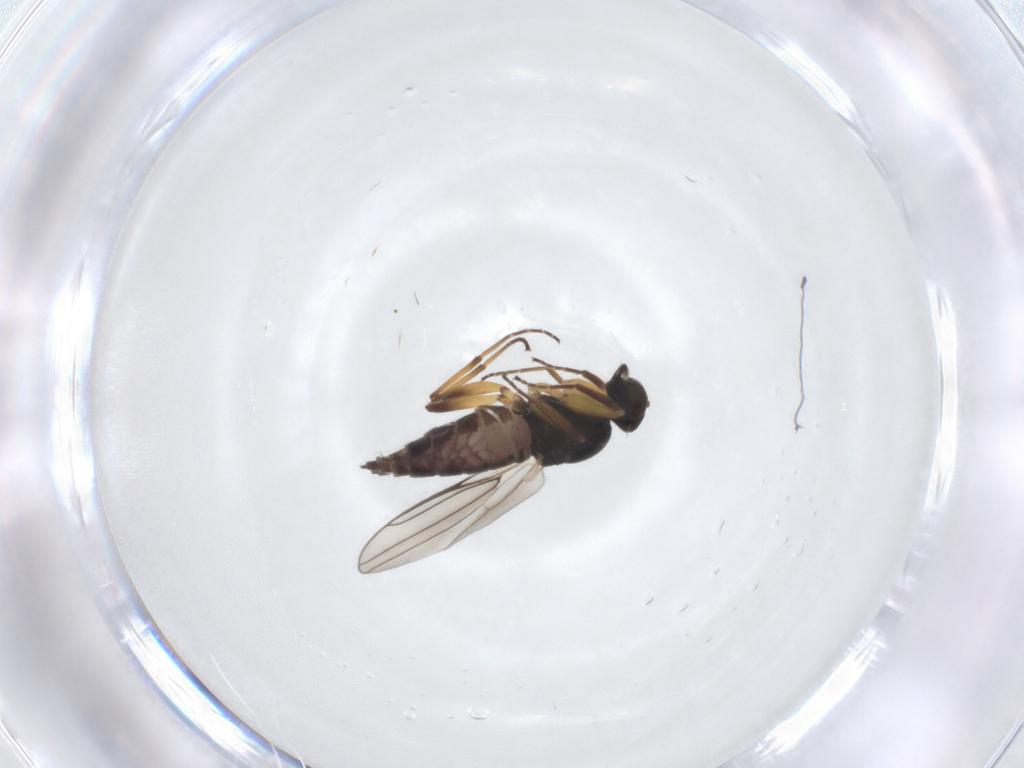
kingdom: Animalia
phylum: Arthropoda
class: Insecta
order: Diptera
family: Hybotidae
